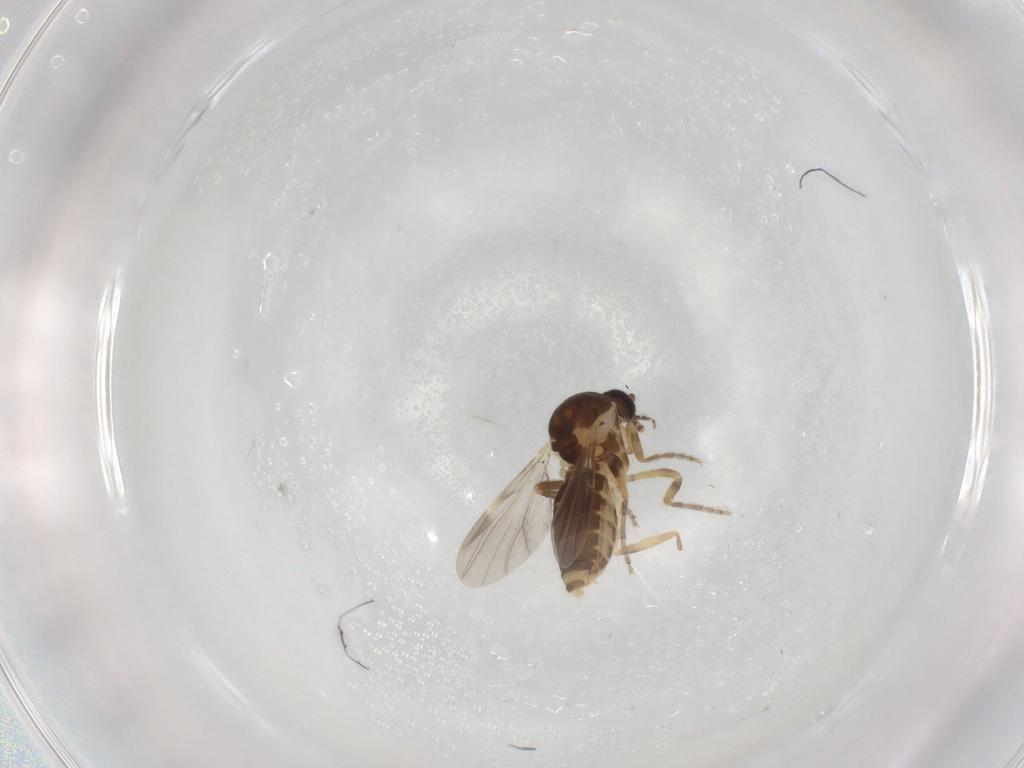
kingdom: Animalia
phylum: Arthropoda
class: Insecta
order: Diptera
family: Ceratopogonidae
